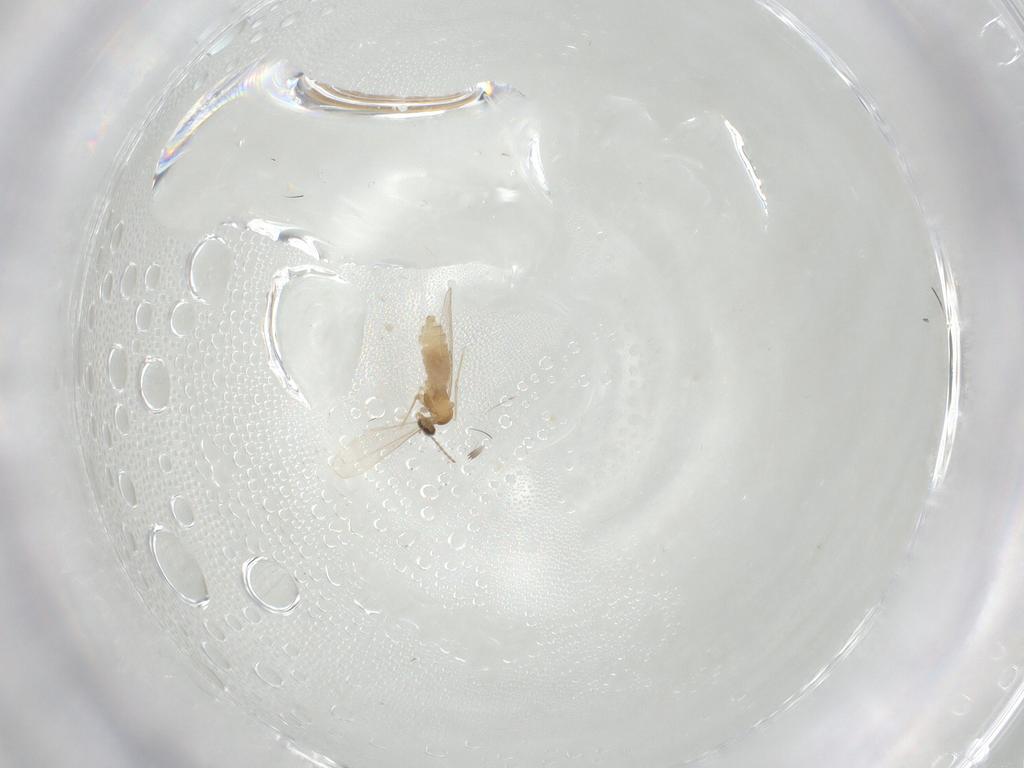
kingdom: Animalia
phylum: Arthropoda
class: Insecta
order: Diptera
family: Cecidomyiidae
